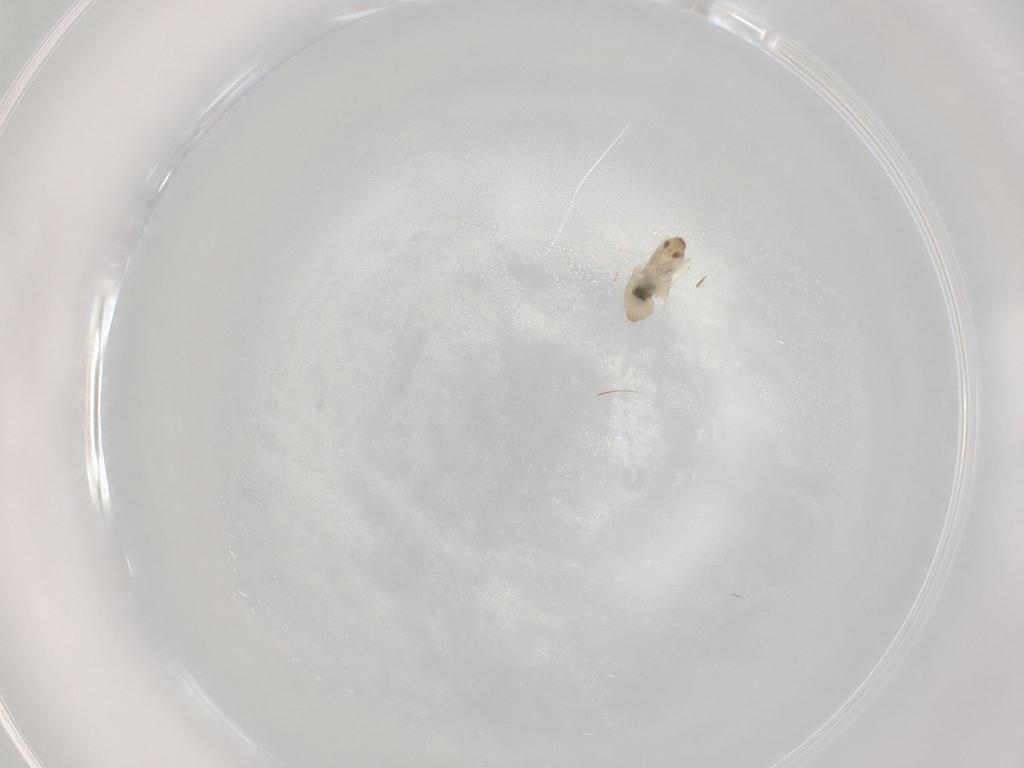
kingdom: Animalia
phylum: Arthropoda
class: Insecta
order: Diptera
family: Cecidomyiidae
